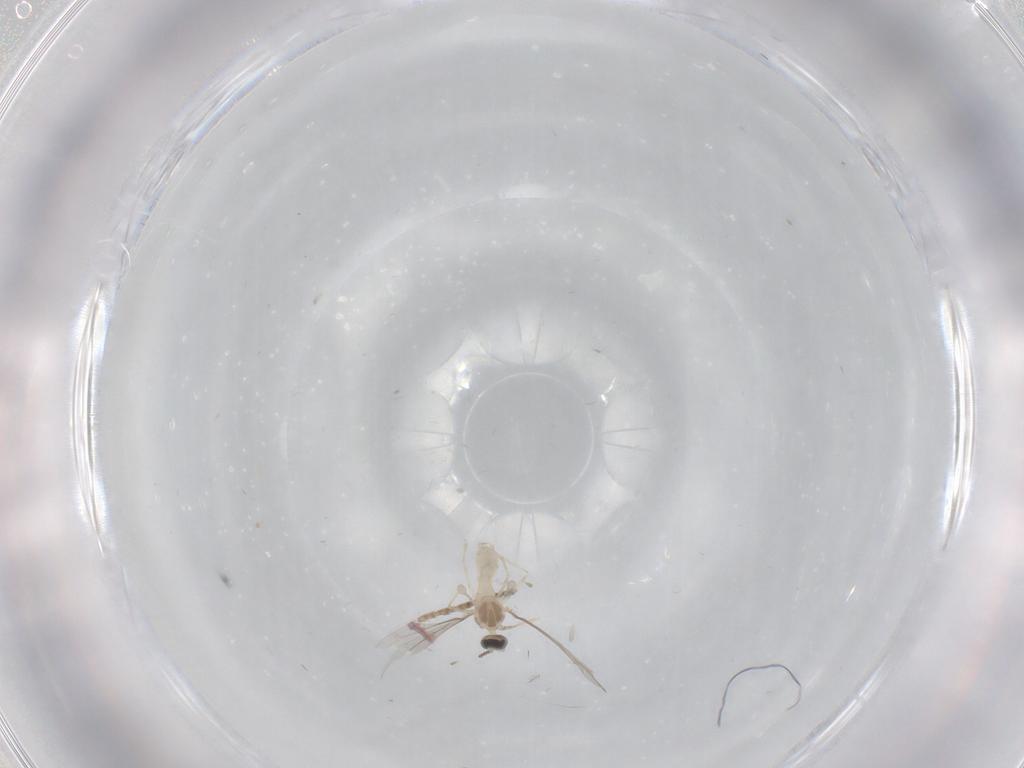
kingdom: Animalia
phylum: Arthropoda
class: Insecta
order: Diptera
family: Cecidomyiidae
